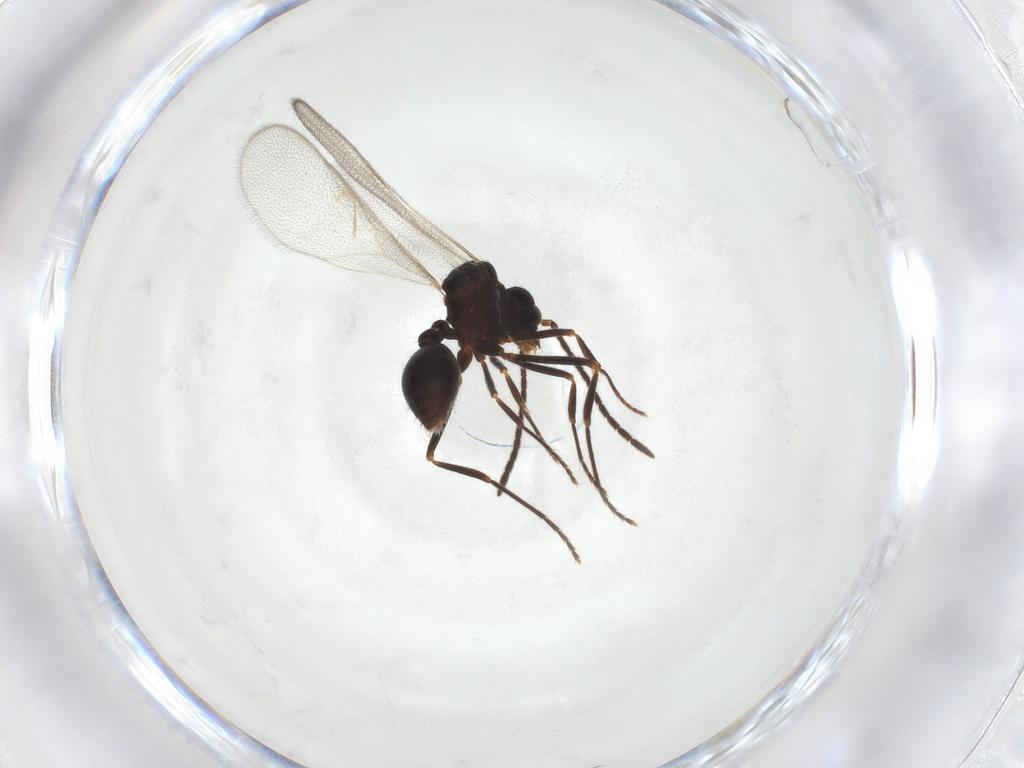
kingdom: Animalia
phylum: Arthropoda
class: Insecta
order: Hymenoptera
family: Formicidae
